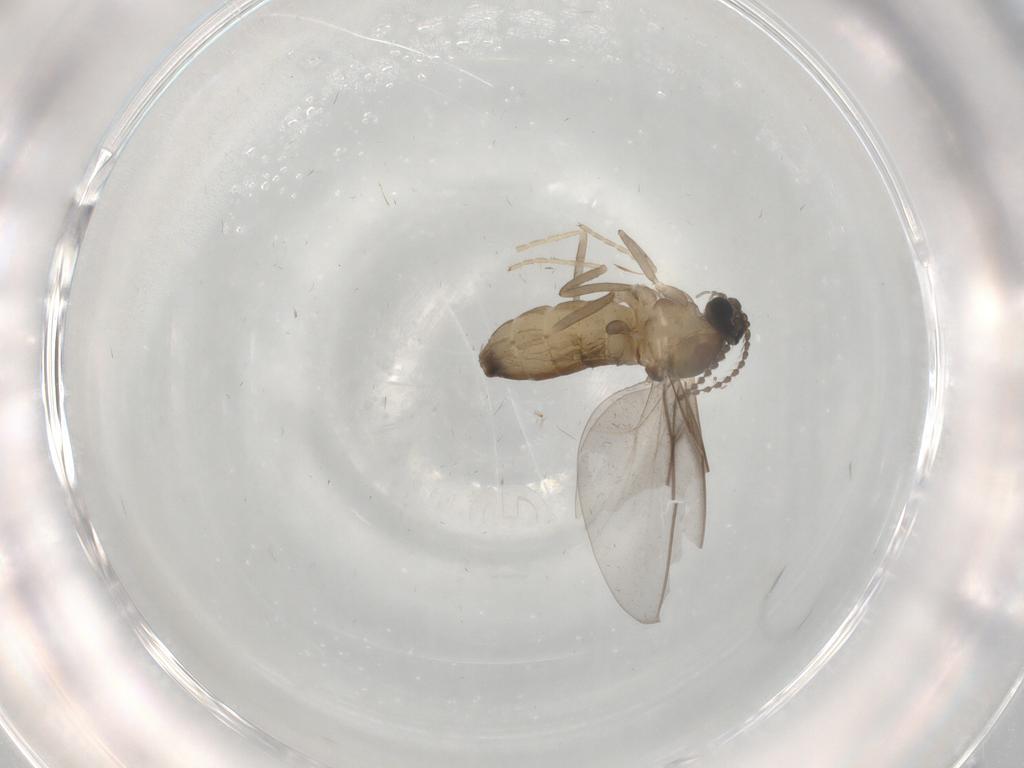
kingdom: Animalia
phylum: Arthropoda
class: Insecta
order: Diptera
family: Cecidomyiidae
